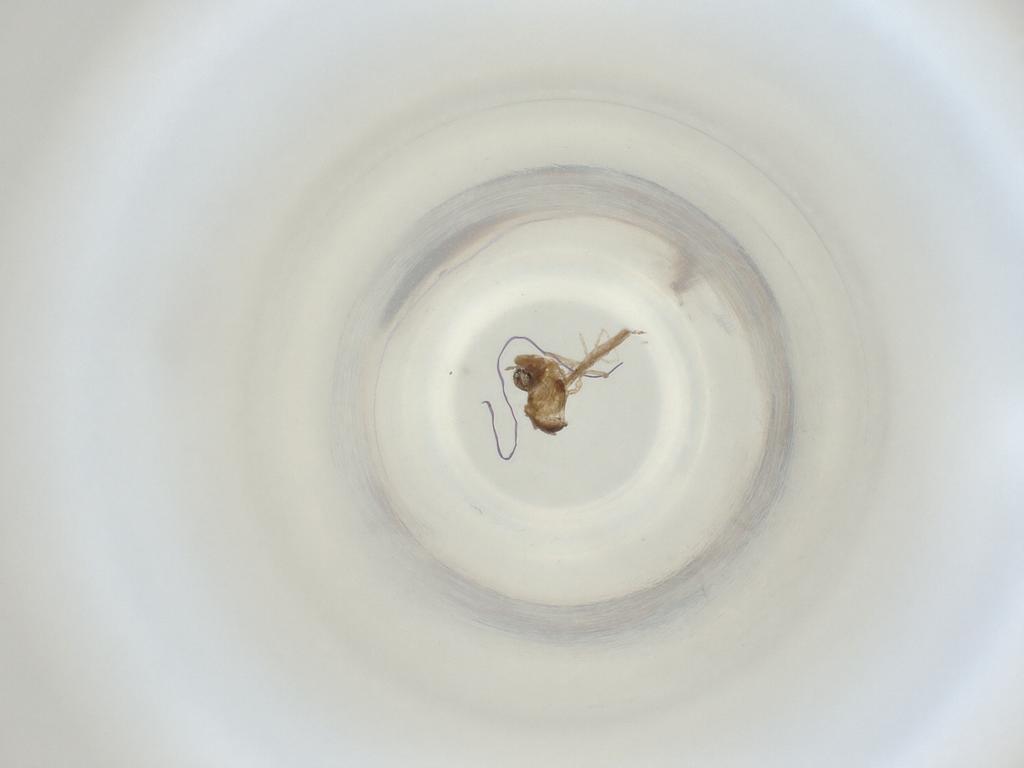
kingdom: Animalia
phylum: Arthropoda
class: Insecta
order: Diptera
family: Cecidomyiidae
